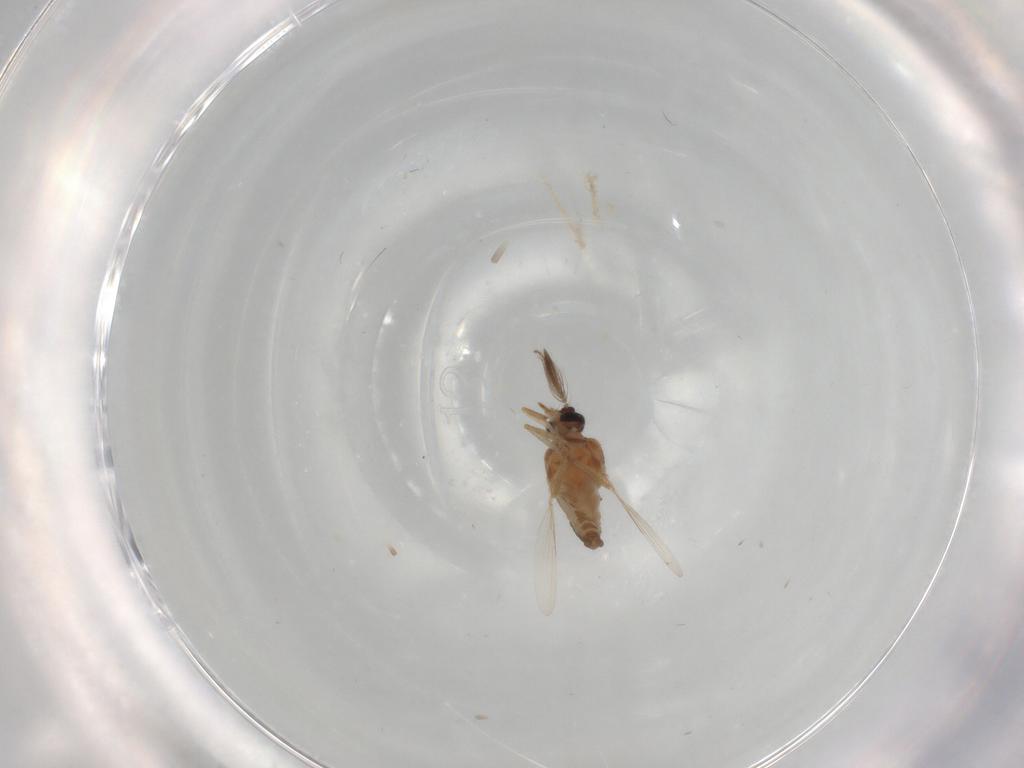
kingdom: Animalia
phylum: Arthropoda
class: Insecta
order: Diptera
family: Ceratopogonidae
